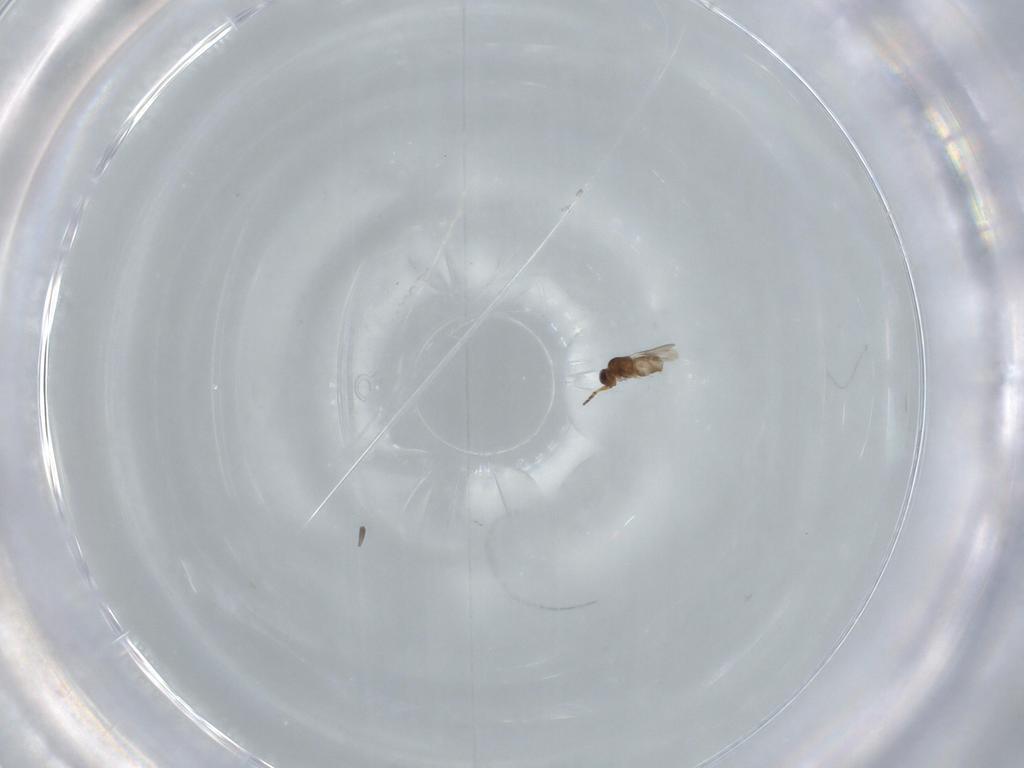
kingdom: Animalia
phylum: Arthropoda
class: Insecta
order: Hymenoptera
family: Ceraphronidae
